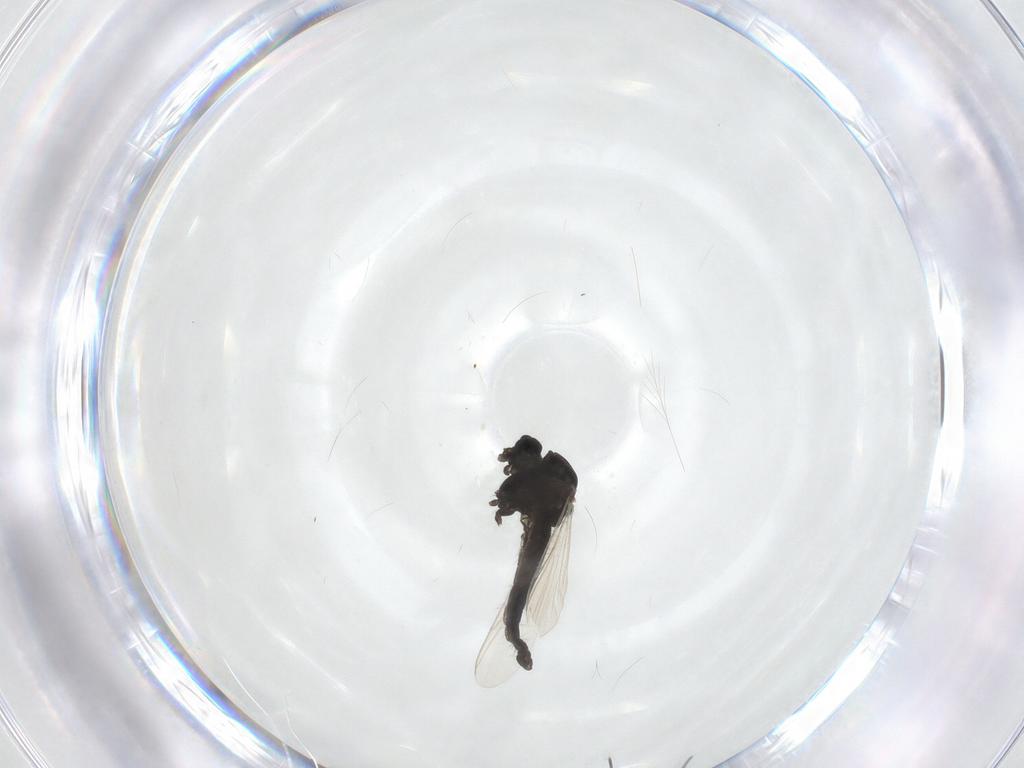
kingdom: Animalia
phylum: Arthropoda
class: Insecta
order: Diptera
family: Chironomidae
